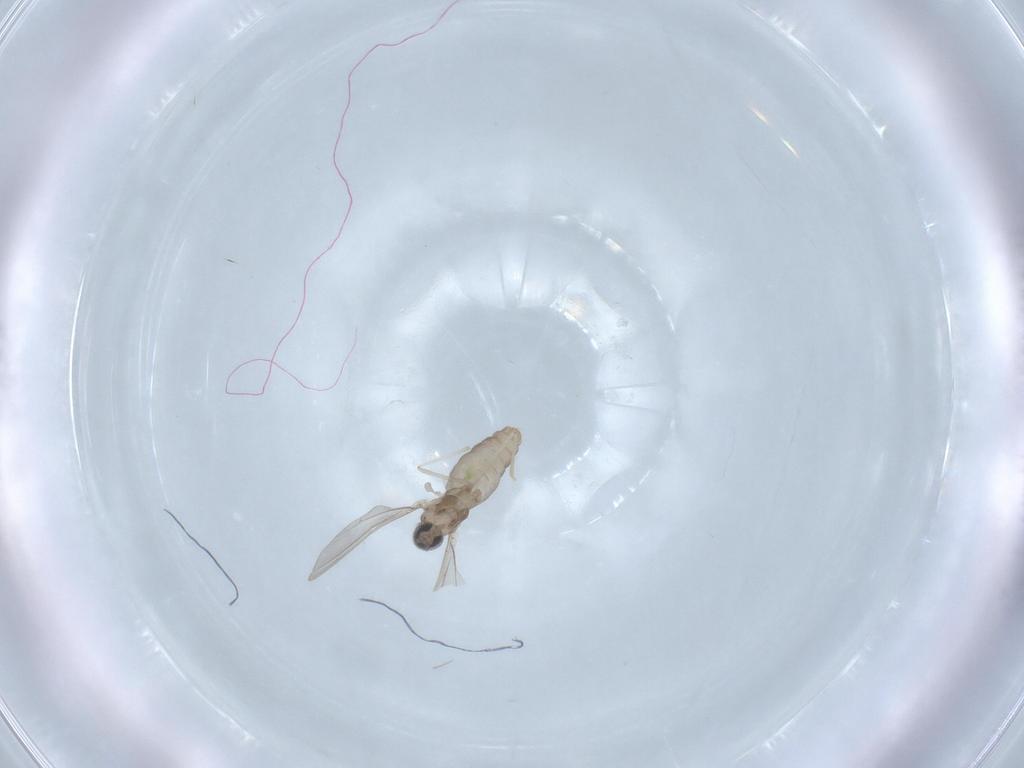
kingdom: Animalia
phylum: Arthropoda
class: Insecta
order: Diptera
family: Cecidomyiidae
